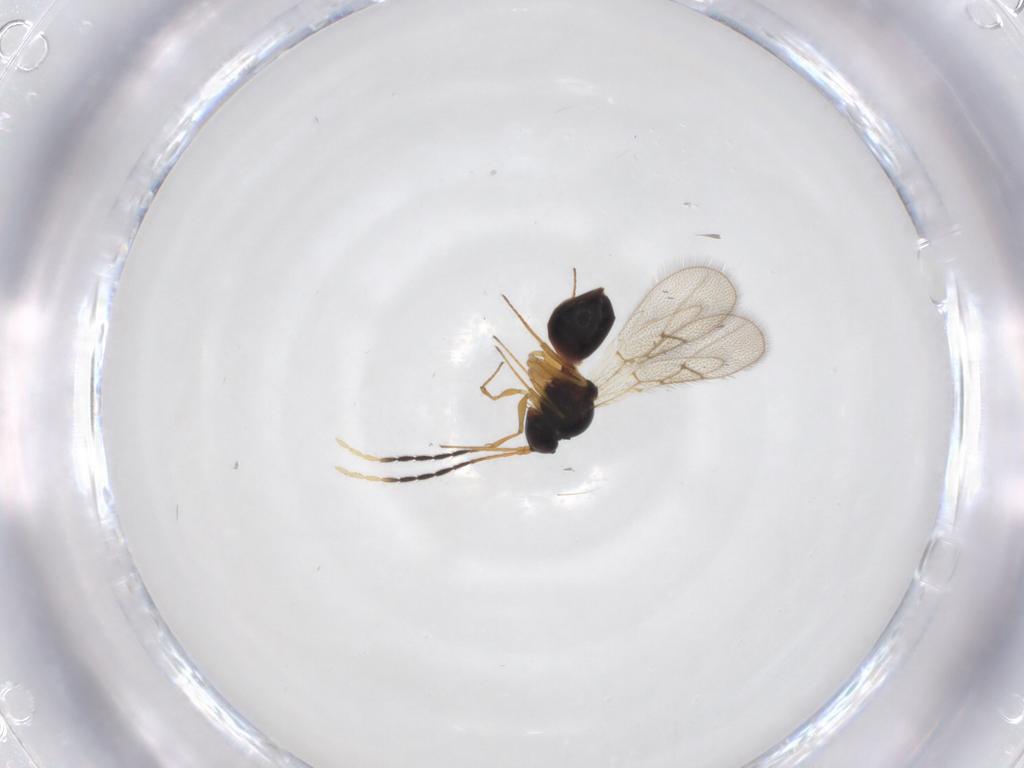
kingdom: Animalia
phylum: Arthropoda
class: Insecta
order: Hymenoptera
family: Figitidae
